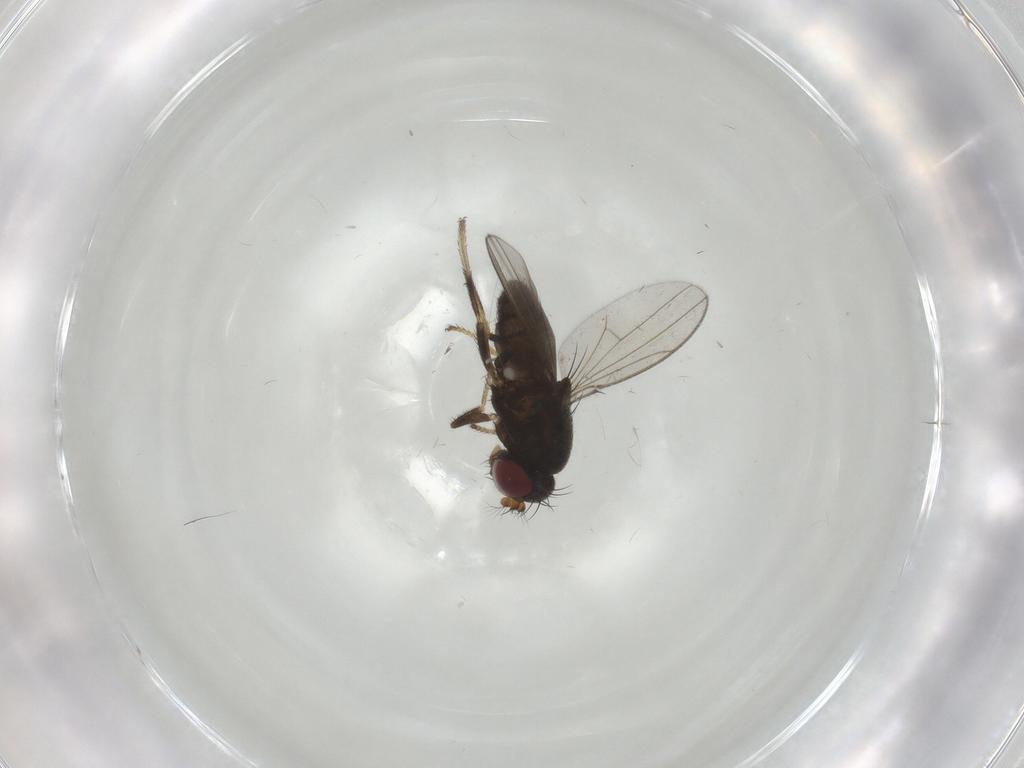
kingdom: Animalia
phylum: Arthropoda
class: Insecta
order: Diptera
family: Ephydridae
